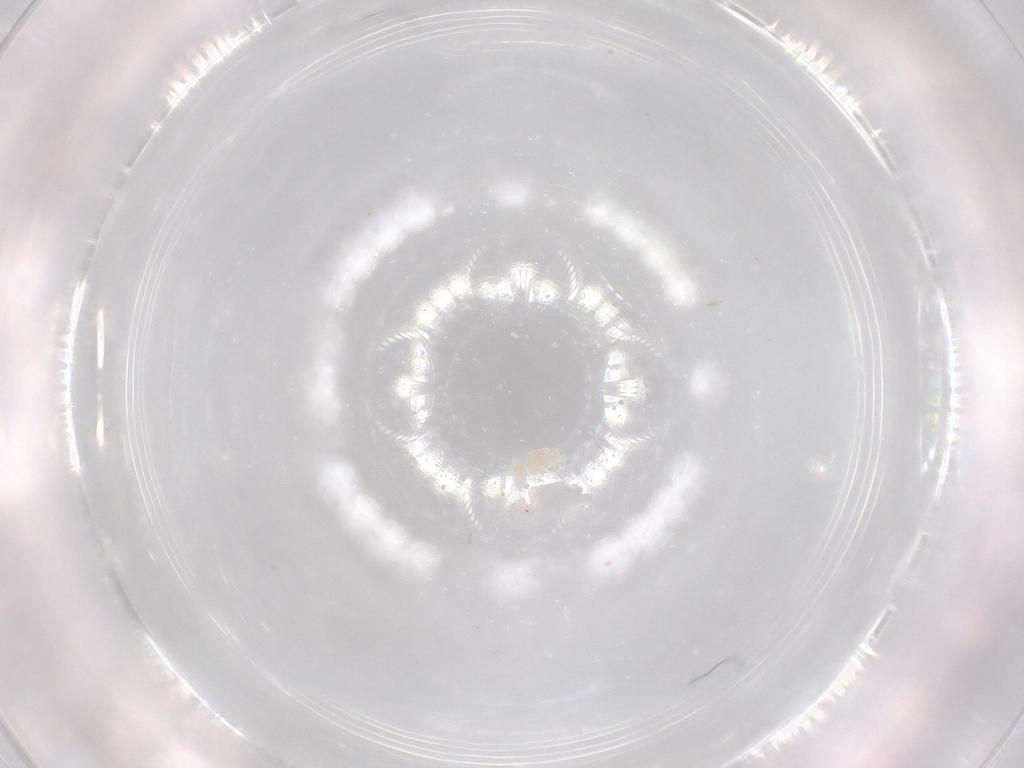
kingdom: Animalia
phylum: Arthropoda
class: Arachnida
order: Trombidiformes
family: Eupodidae
